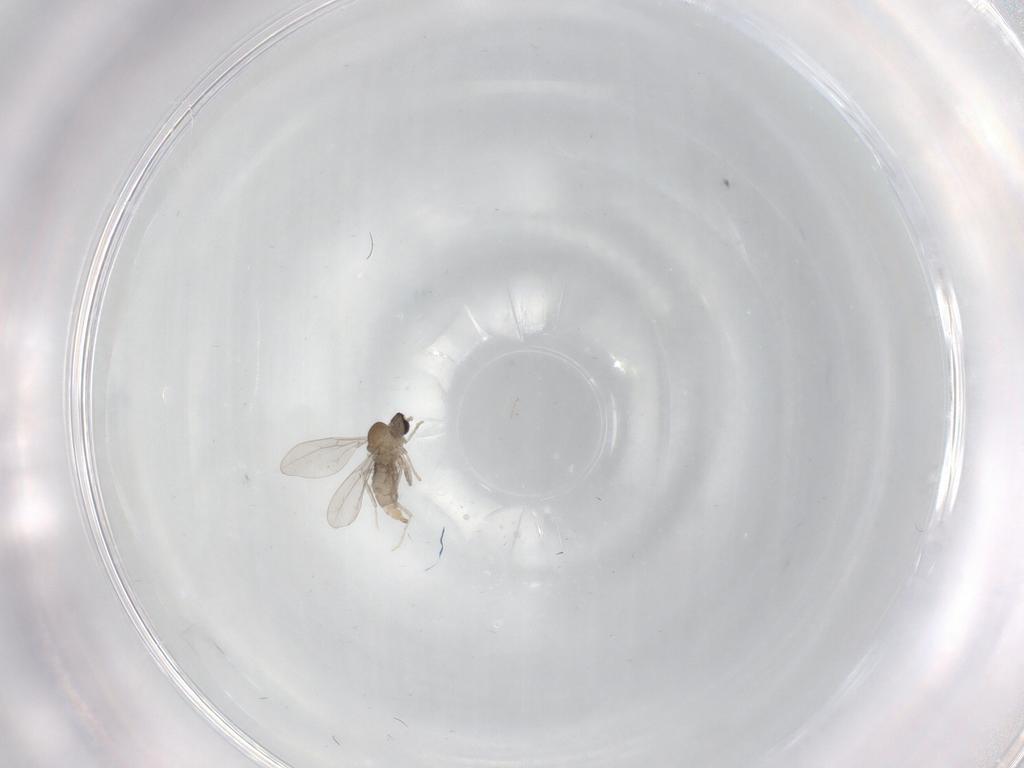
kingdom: Animalia
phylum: Arthropoda
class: Insecta
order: Diptera
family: Cecidomyiidae
